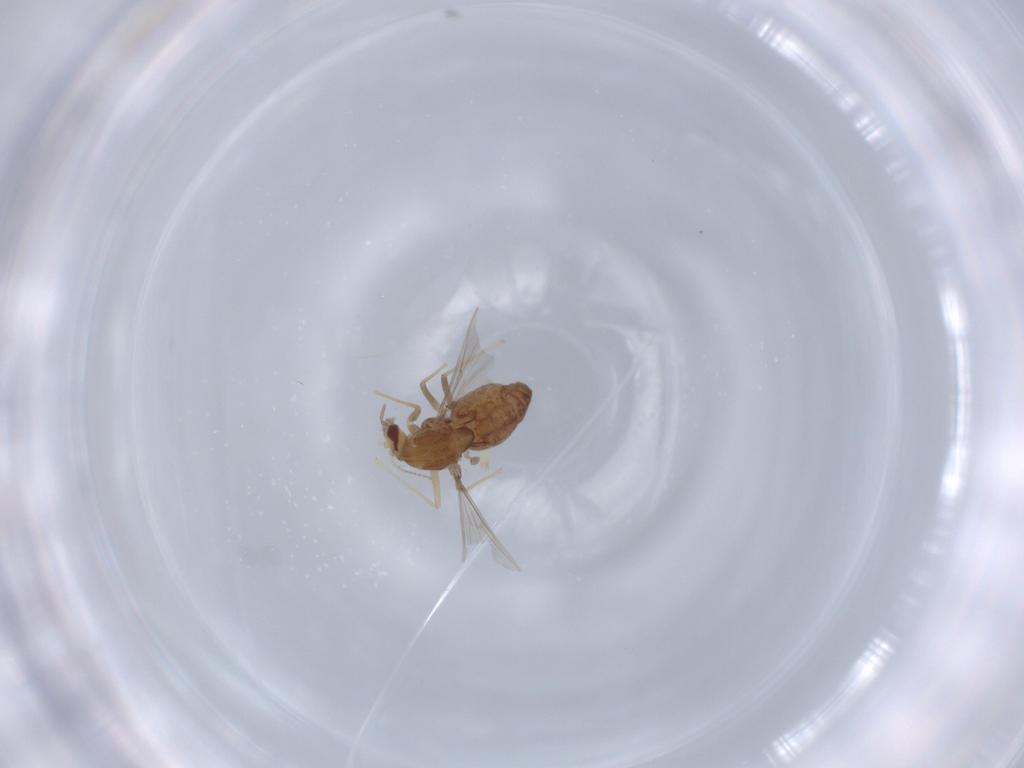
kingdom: Animalia
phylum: Arthropoda
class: Insecta
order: Diptera
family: Chironomidae
